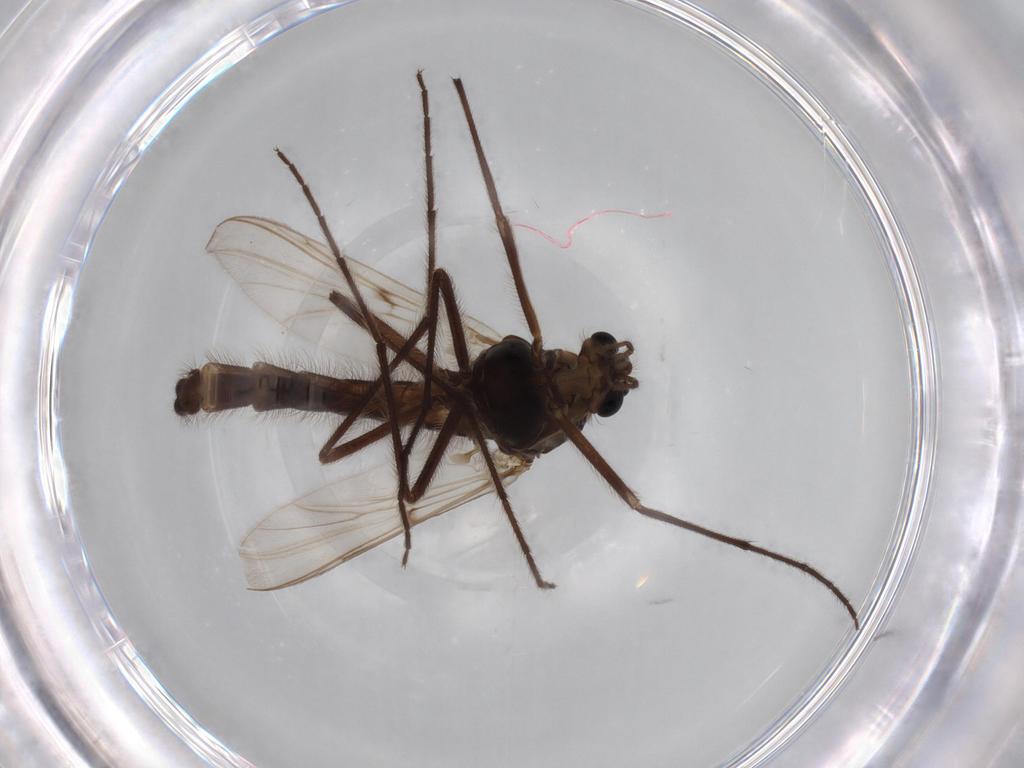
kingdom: Animalia
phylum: Arthropoda
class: Insecta
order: Diptera
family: Chironomidae
